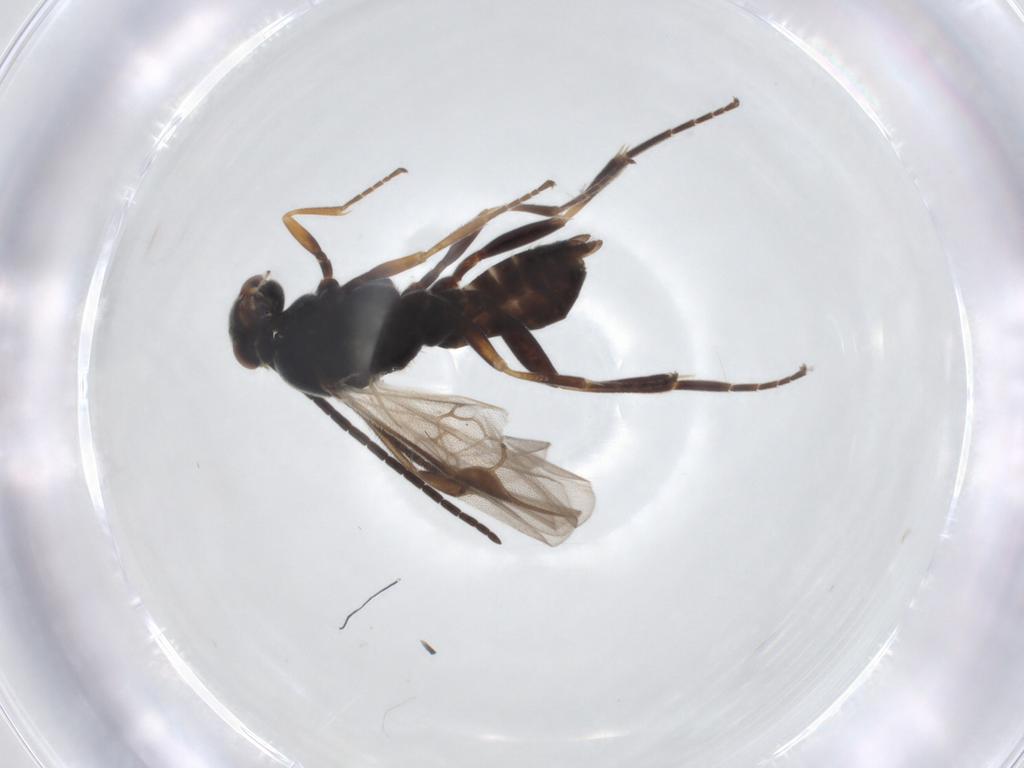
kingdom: Animalia
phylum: Arthropoda
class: Insecta
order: Hymenoptera
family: Braconidae
